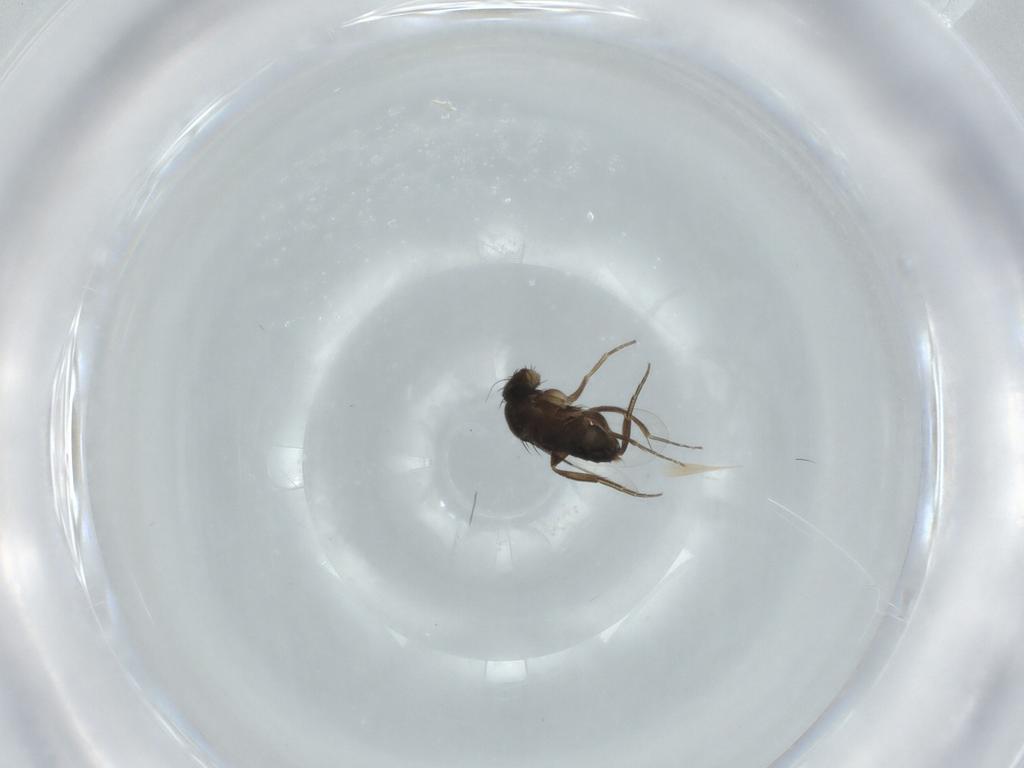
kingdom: Animalia
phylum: Arthropoda
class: Insecta
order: Diptera
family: Phoridae
